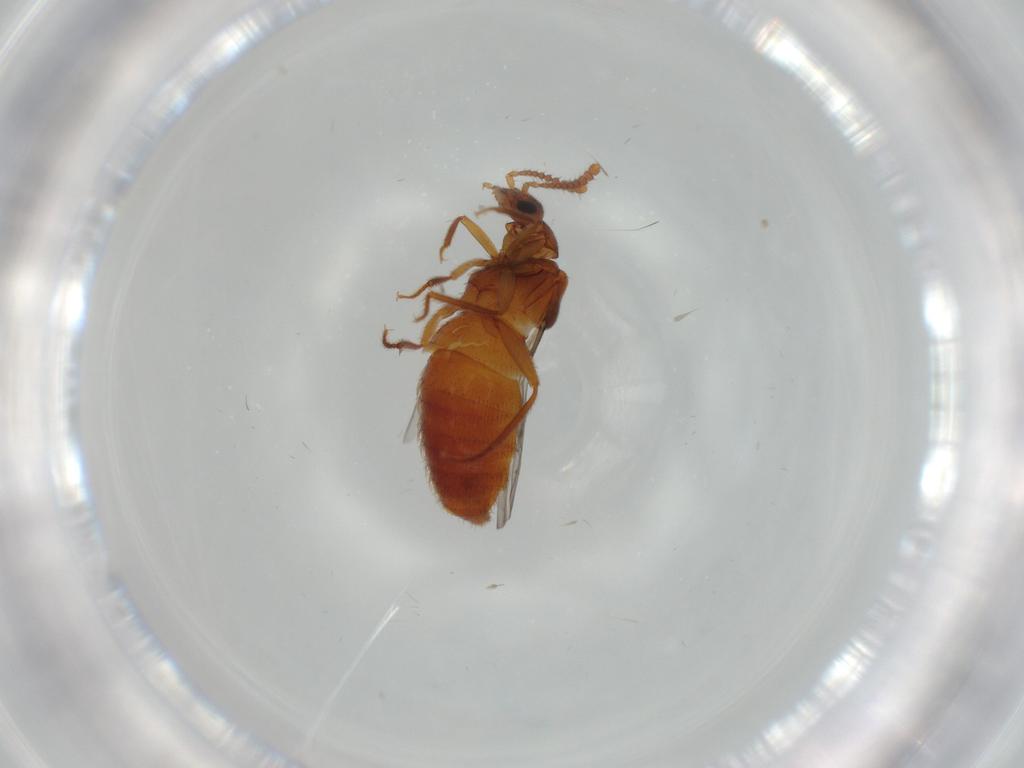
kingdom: Animalia
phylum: Arthropoda
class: Insecta
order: Coleoptera
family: Staphylinidae
